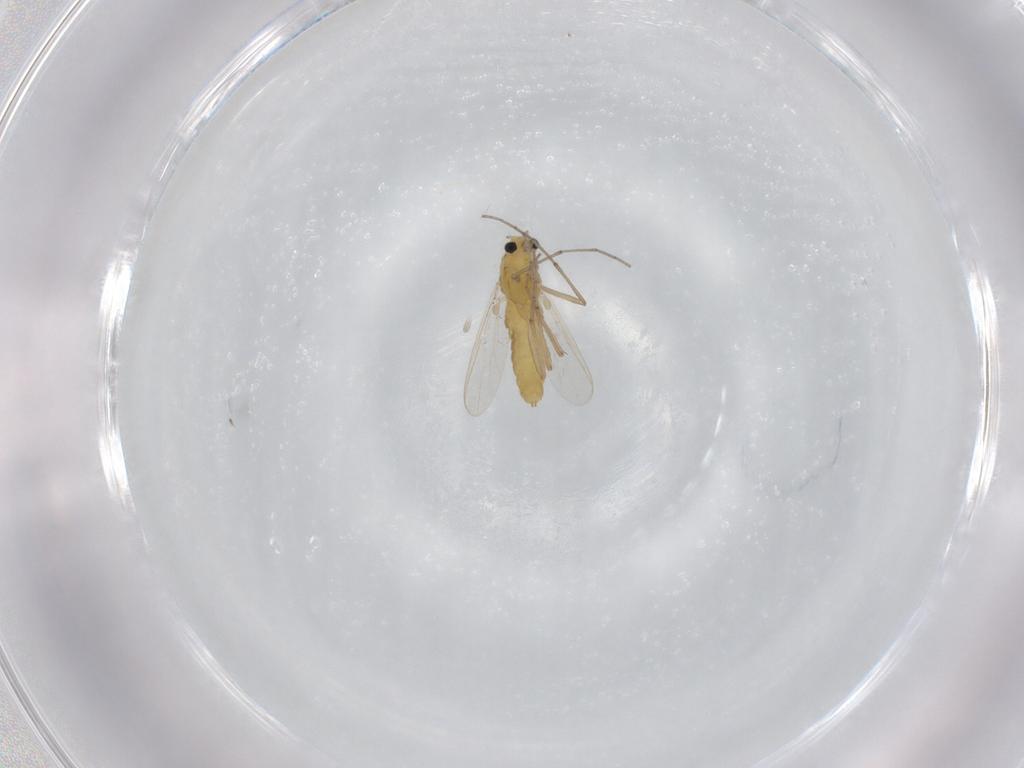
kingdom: Animalia
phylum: Arthropoda
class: Insecta
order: Diptera
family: Chironomidae
